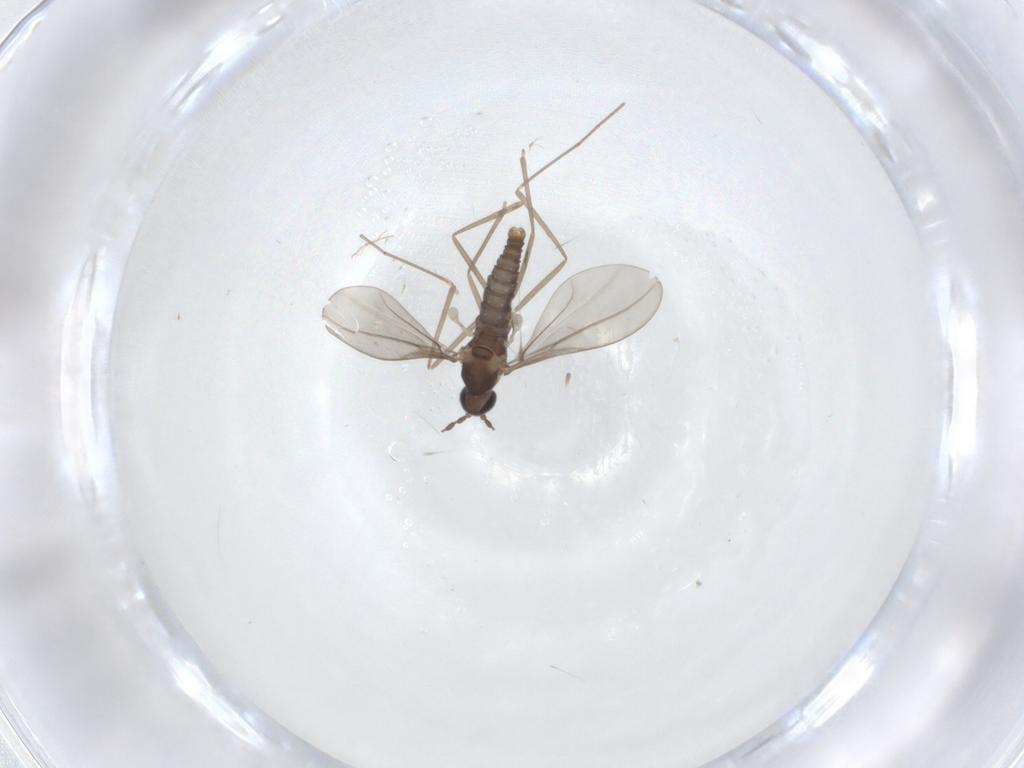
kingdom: Animalia
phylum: Arthropoda
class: Insecta
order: Diptera
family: Cecidomyiidae
